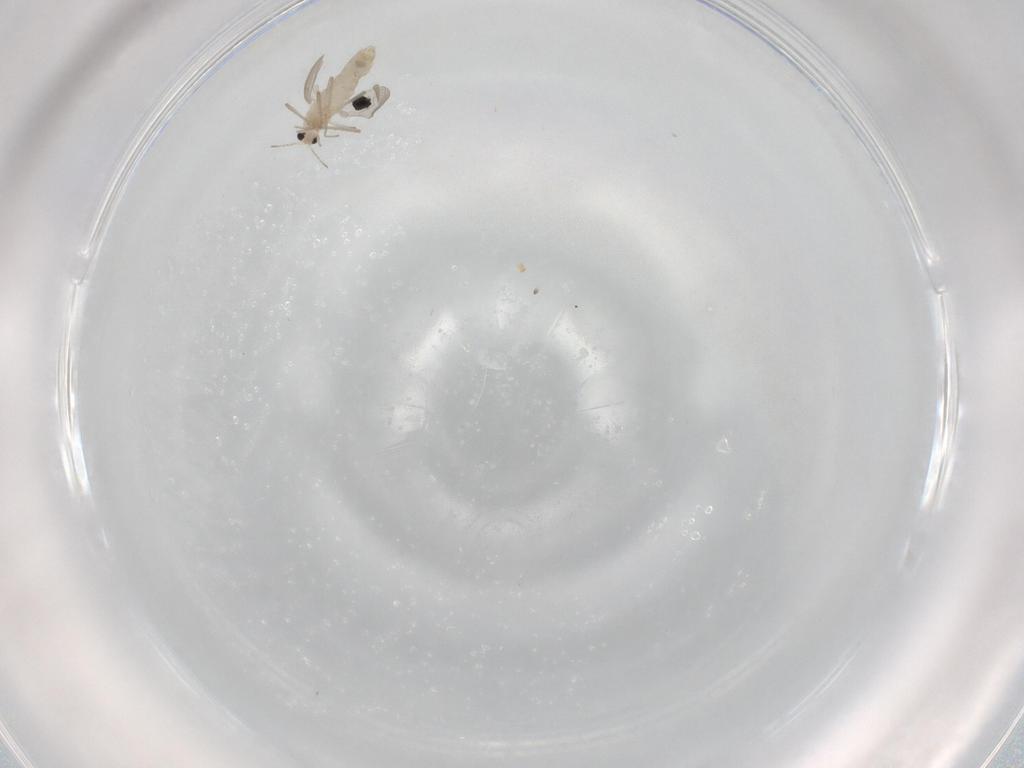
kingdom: Animalia
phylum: Arthropoda
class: Insecta
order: Diptera
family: Chironomidae
